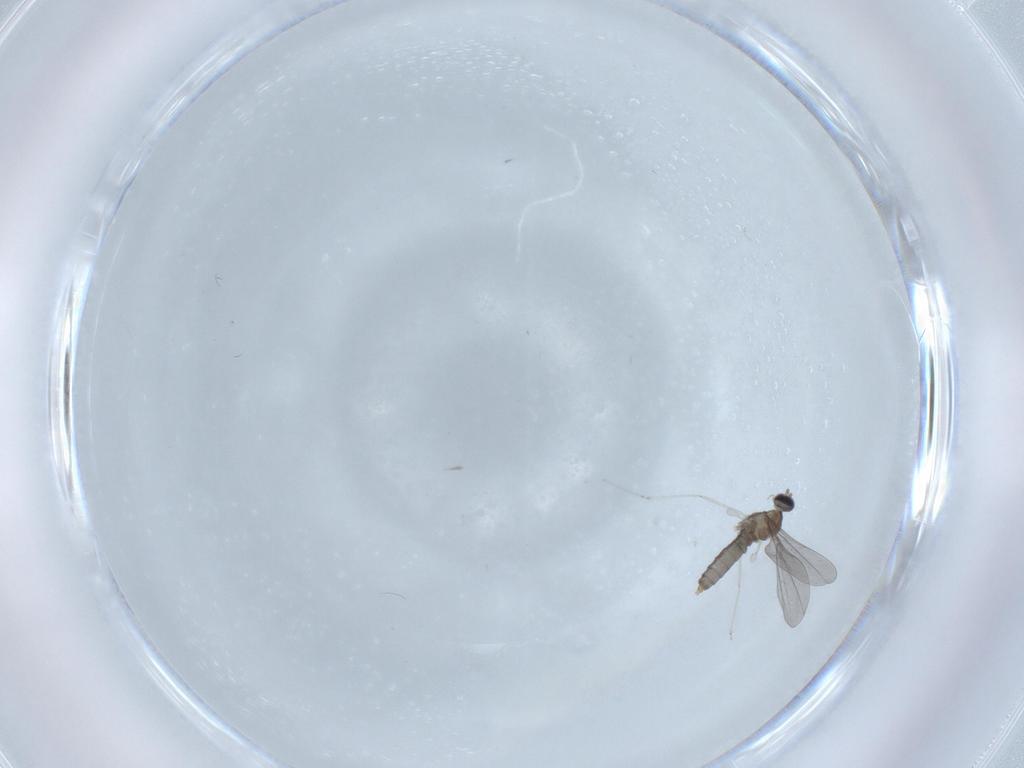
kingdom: Animalia
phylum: Arthropoda
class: Insecta
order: Diptera
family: Cecidomyiidae
